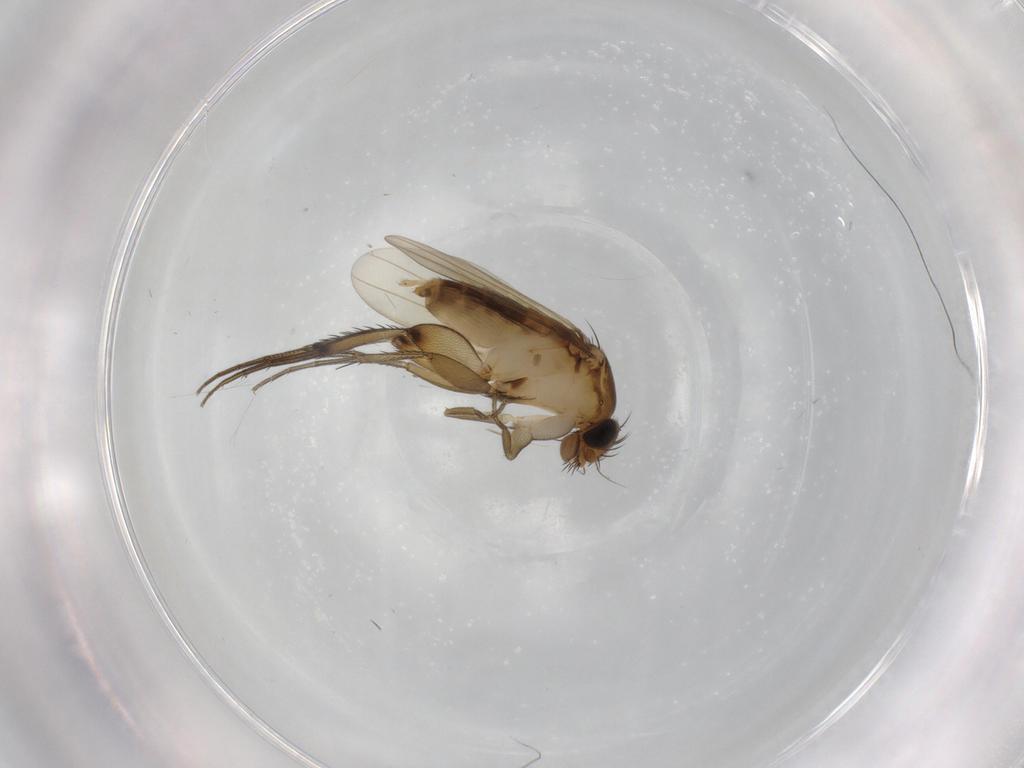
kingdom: Animalia
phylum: Arthropoda
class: Insecta
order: Diptera
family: Phoridae
